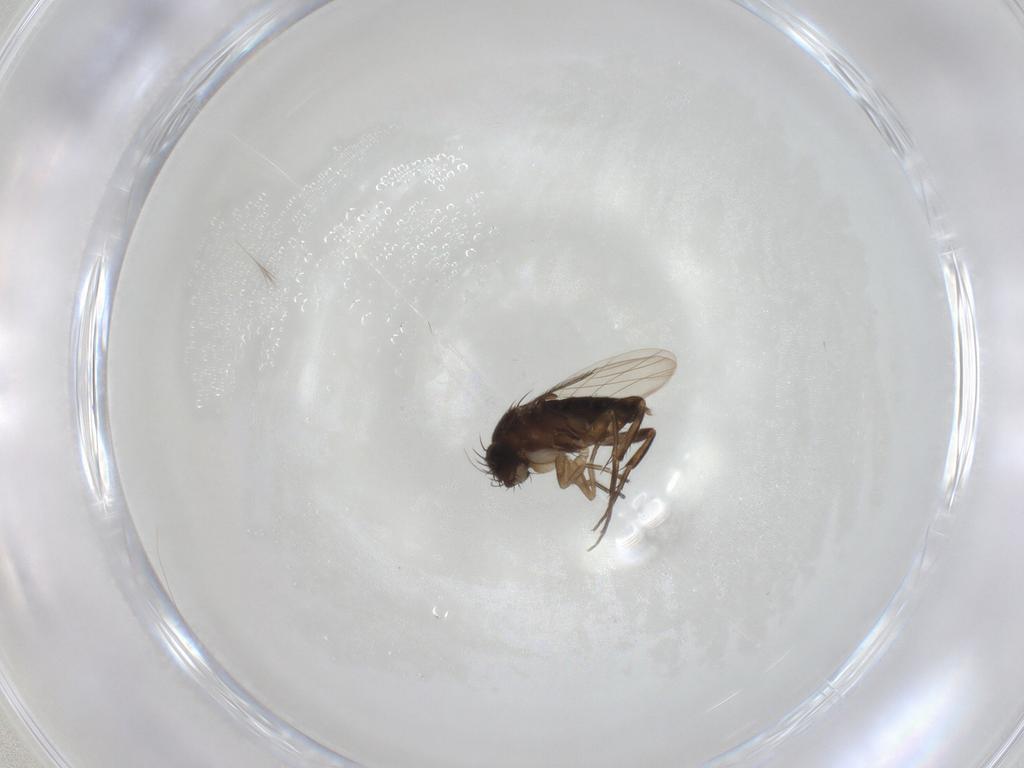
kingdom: Animalia
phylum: Arthropoda
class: Insecta
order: Diptera
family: Phoridae
